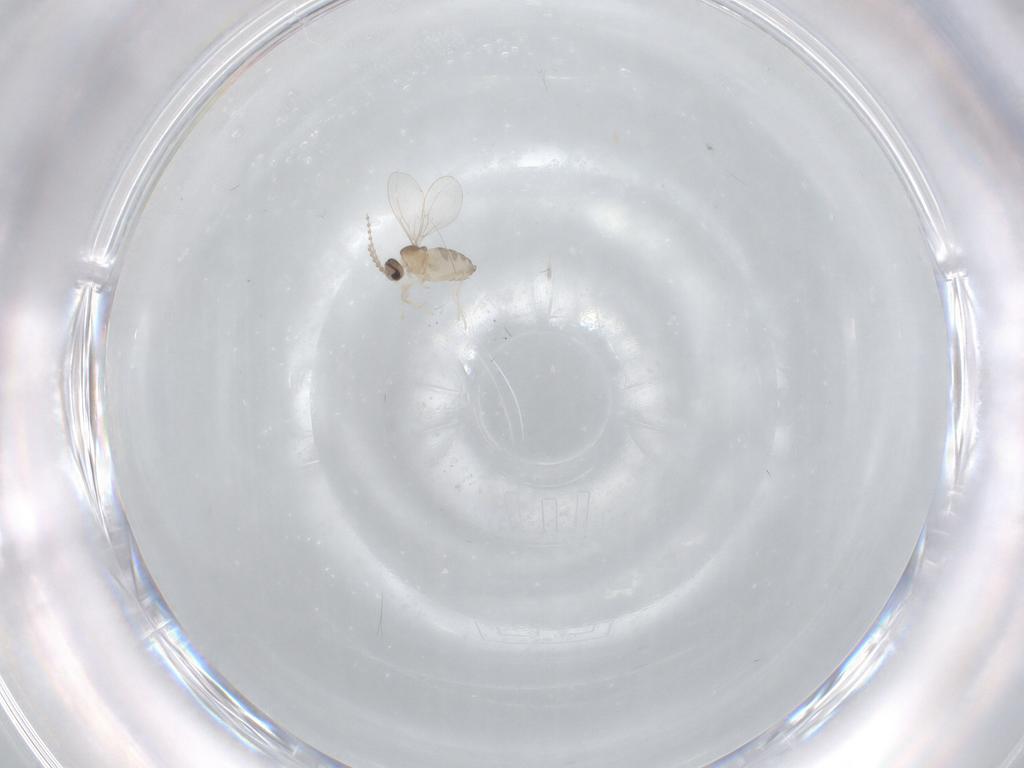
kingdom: Animalia
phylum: Arthropoda
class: Insecta
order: Diptera
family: Cecidomyiidae
